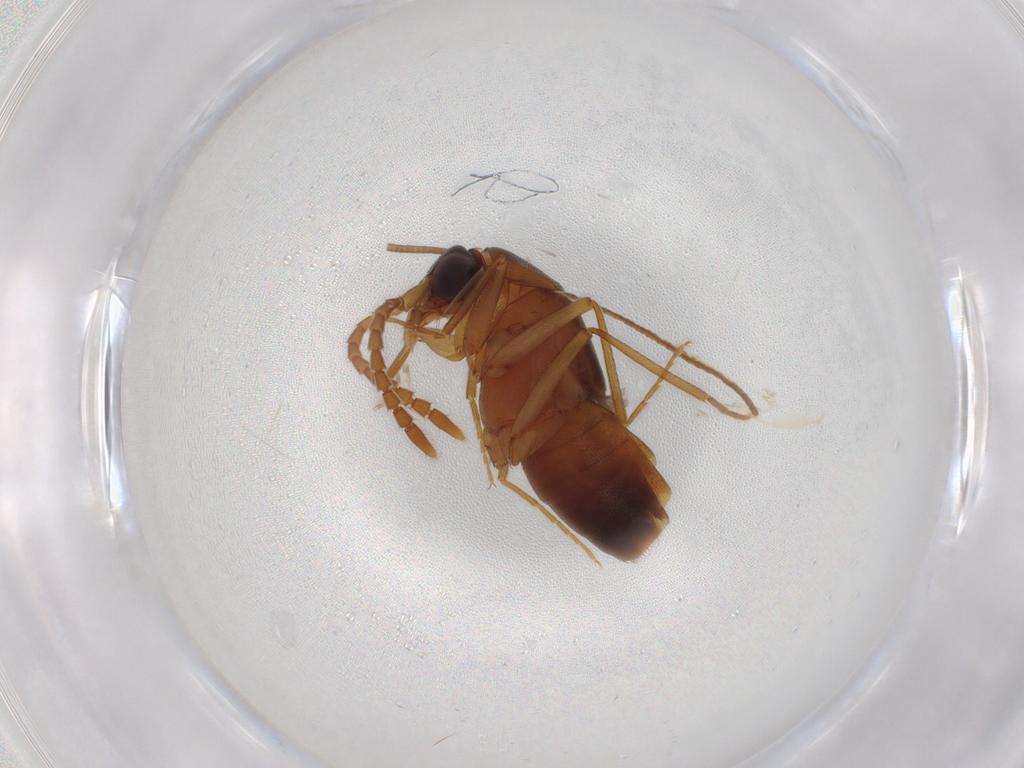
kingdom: Animalia
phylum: Arthropoda
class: Insecta
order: Coleoptera
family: Staphylinidae
